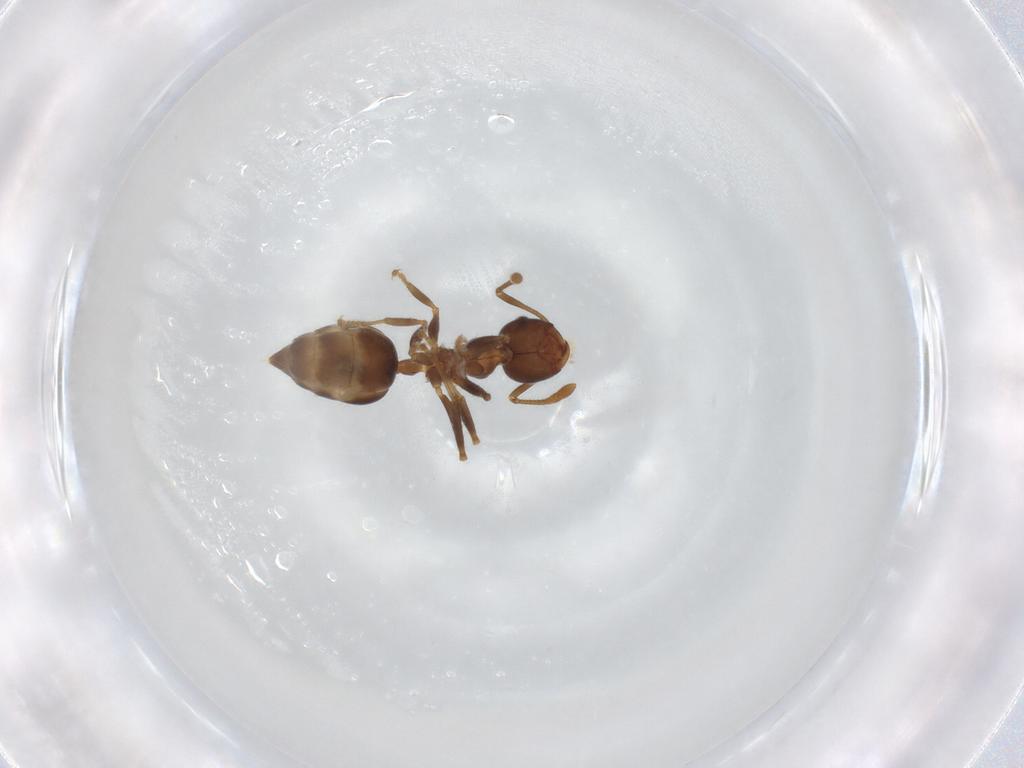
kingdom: Animalia
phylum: Arthropoda
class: Insecta
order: Hymenoptera
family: Formicidae
